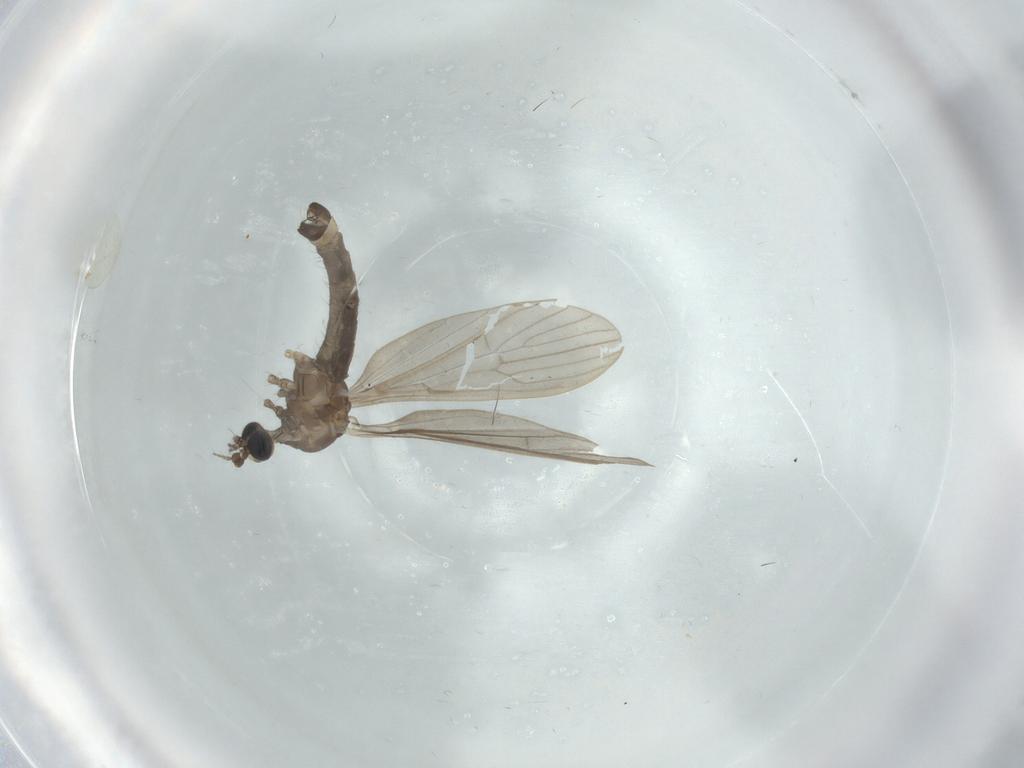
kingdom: Animalia
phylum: Arthropoda
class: Insecta
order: Diptera
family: Limoniidae
